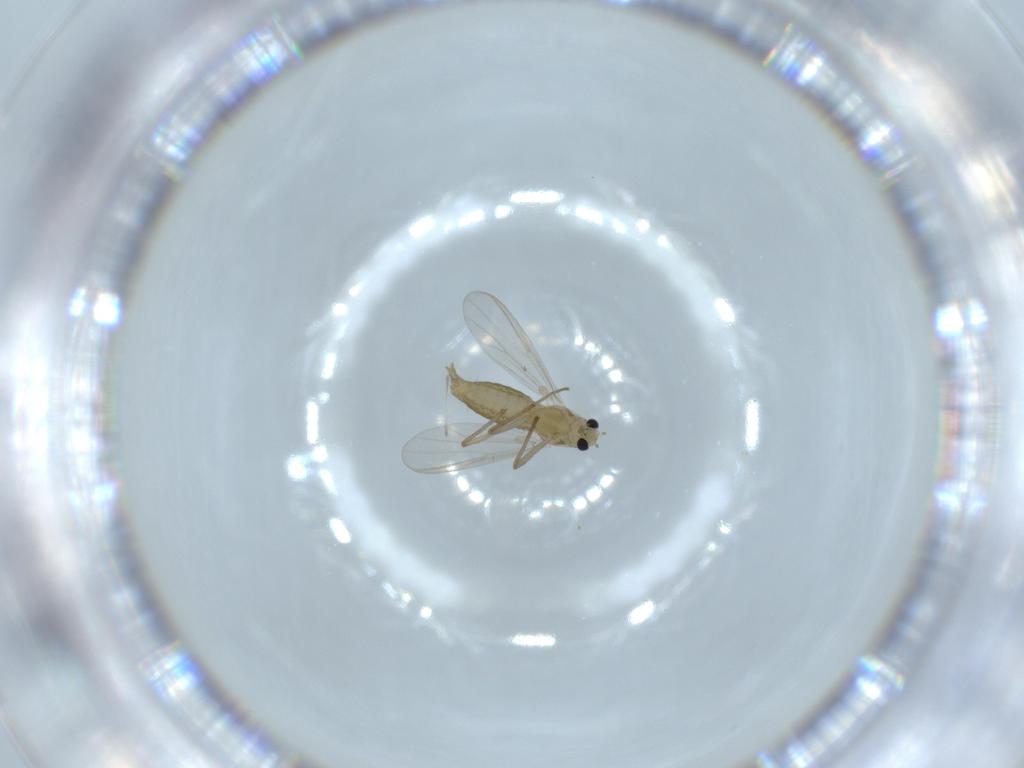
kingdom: Animalia
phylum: Arthropoda
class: Insecta
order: Diptera
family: Chironomidae
